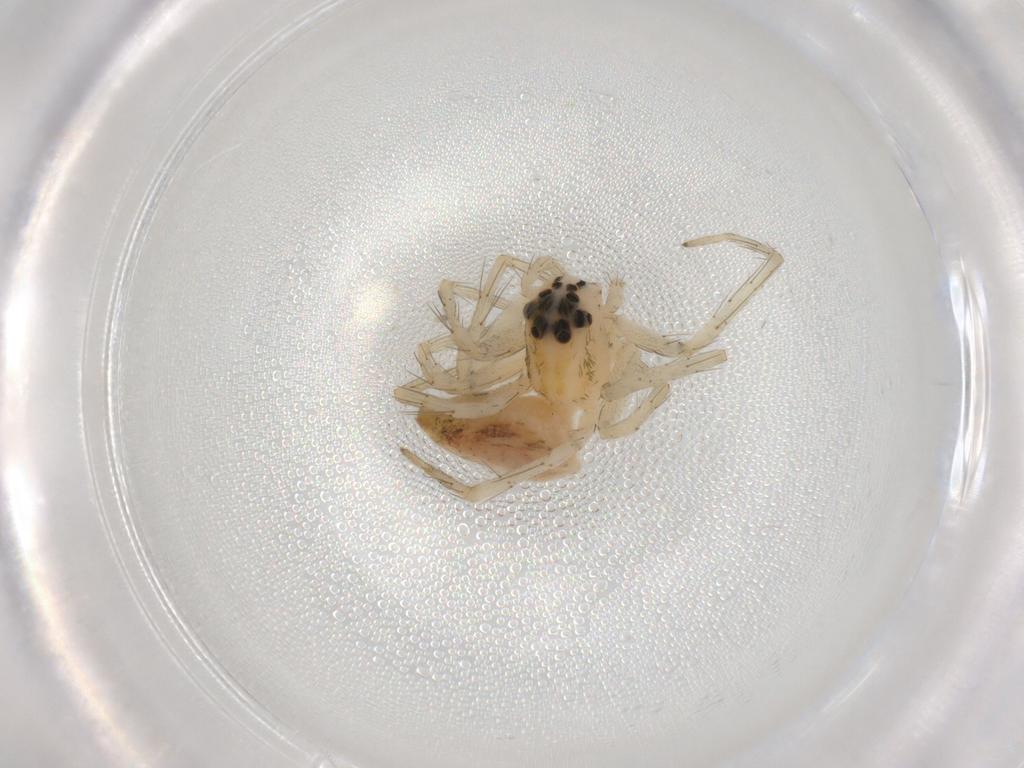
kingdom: Animalia
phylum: Arthropoda
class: Arachnida
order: Araneae
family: Oxyopidae
